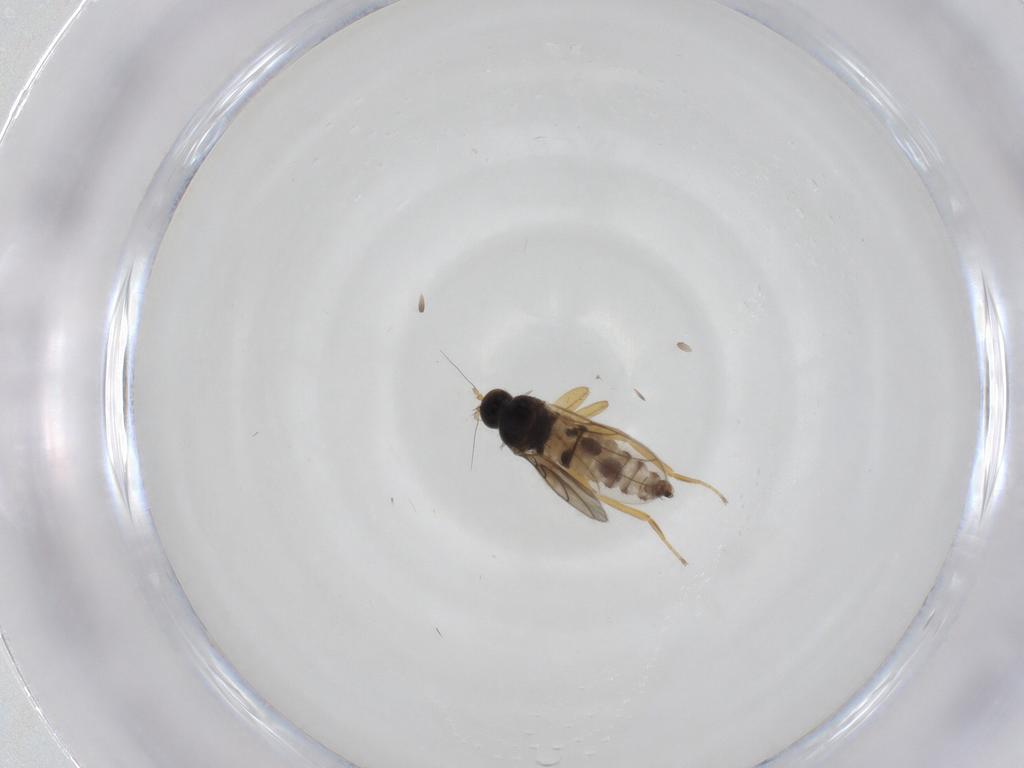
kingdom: Animalia
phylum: Arthropoda
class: Insecta
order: Diptera
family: Hybotidae
